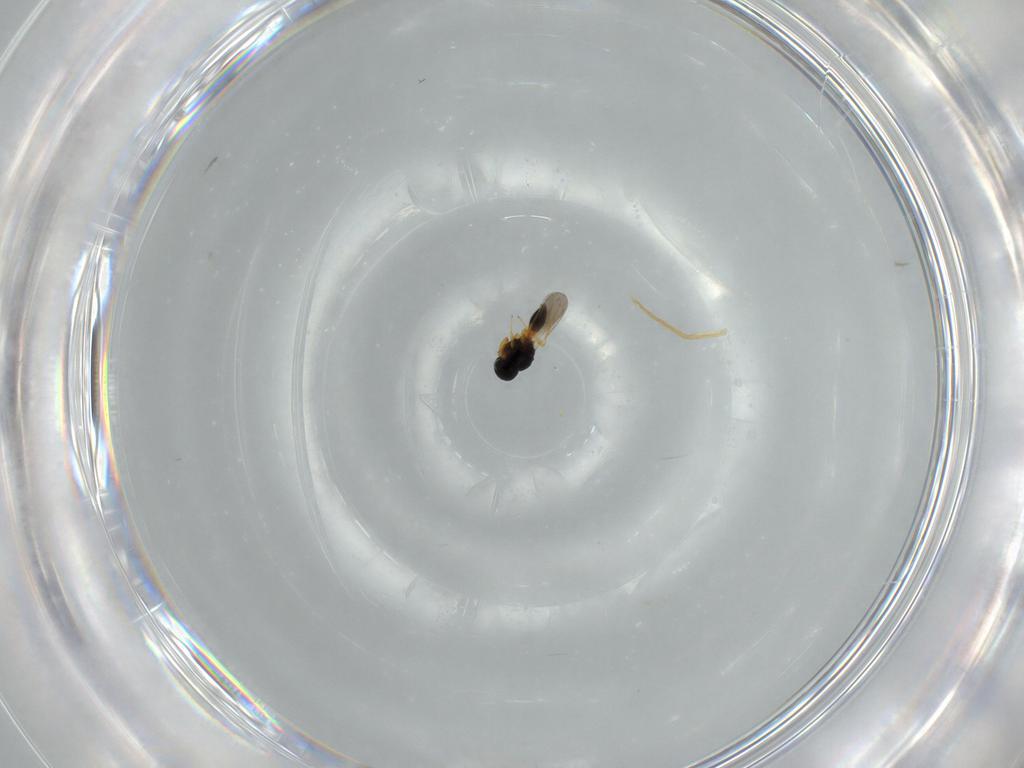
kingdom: Animalia
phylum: Arthropoda
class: Insecta
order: Hymenoptera
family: Platygastridae
